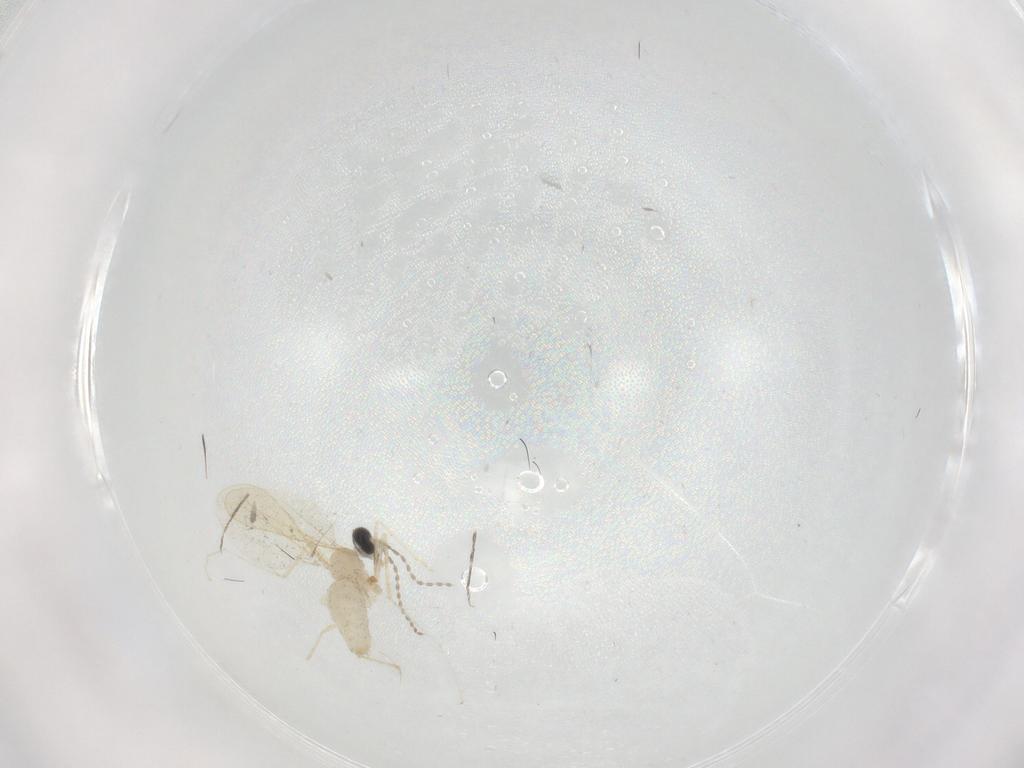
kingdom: Animalia
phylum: Arthropoda
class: Insecta
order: Diptera
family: Cecidomyiidae
